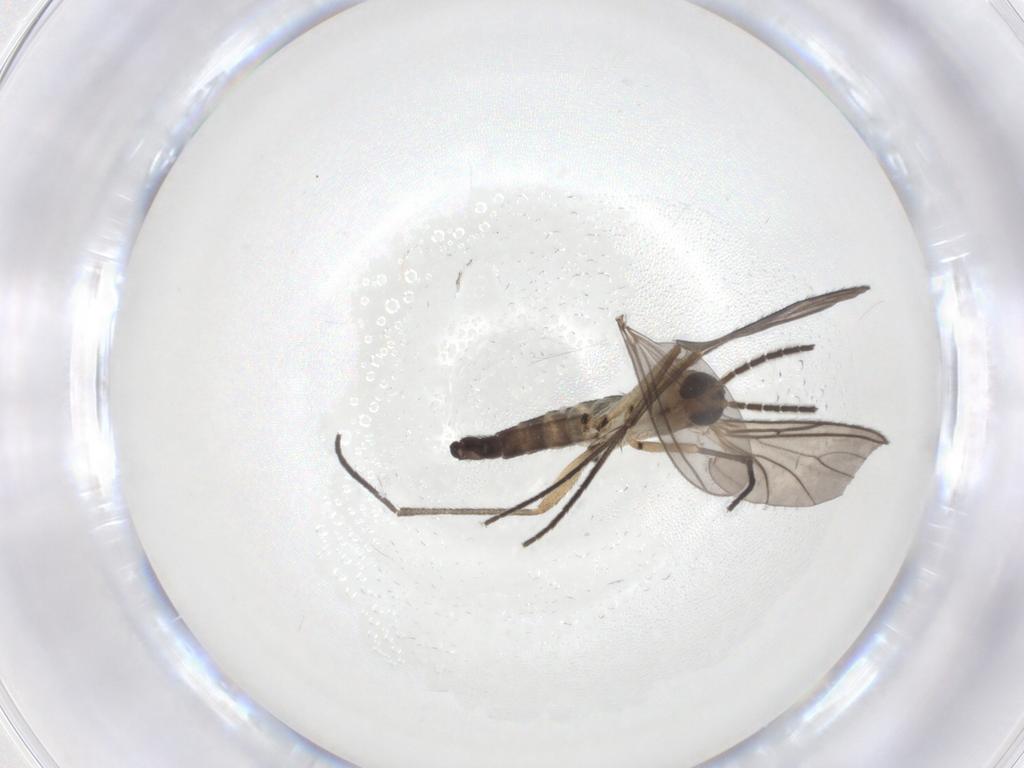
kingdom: Animalia
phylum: Arthropoda
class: Insecta
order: Diptera
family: Sciaridae
